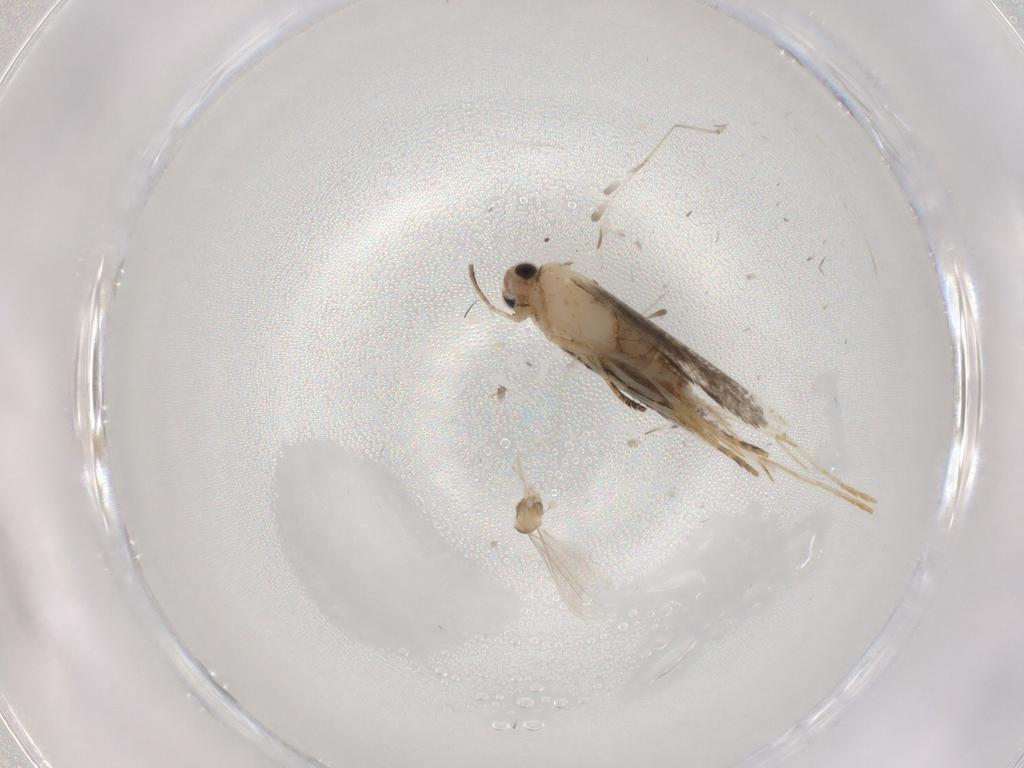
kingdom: Animalia
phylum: Arthropoda
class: Insecta
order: Lepidoptera
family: Tineidae
